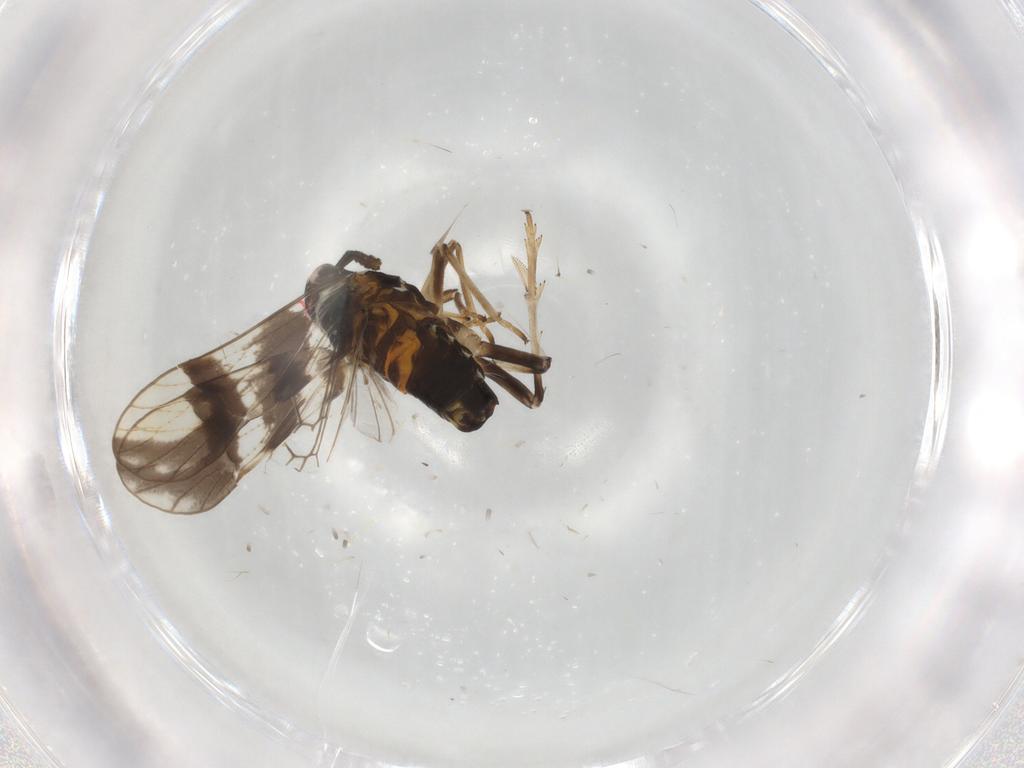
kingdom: Animalia
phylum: Arthropoda
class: Insecta
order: Hemiptera
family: Delphacidae
